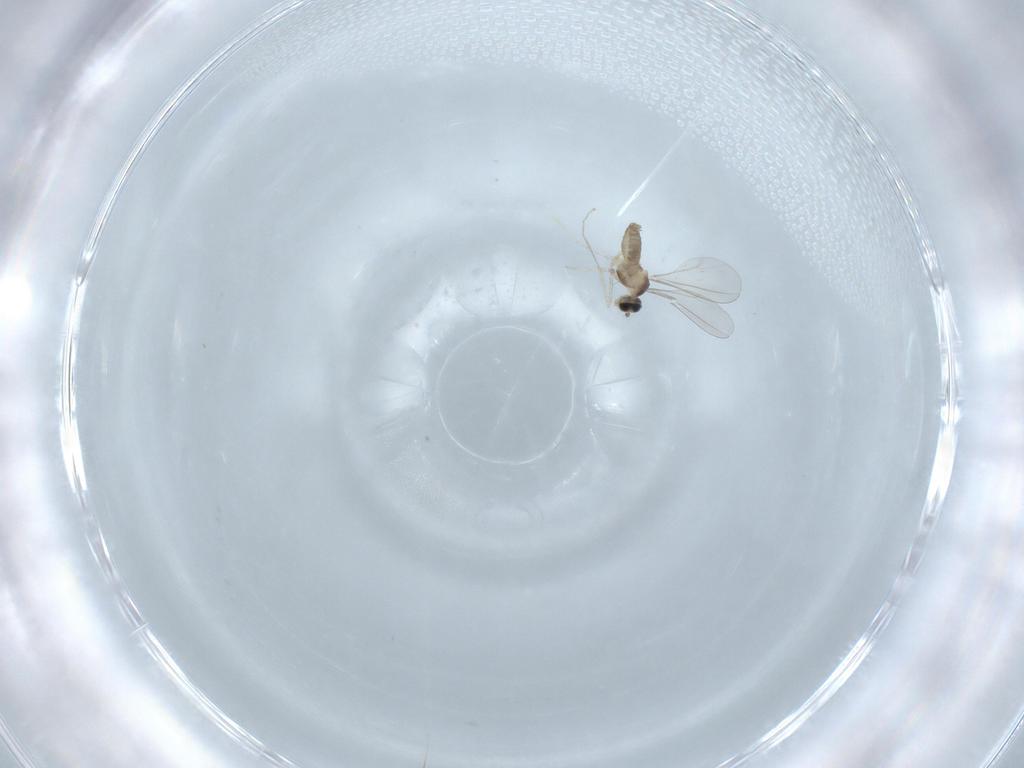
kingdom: Animalia
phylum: Arthropoda
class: Insecta
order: Diptera
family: Cecidomyiidae
